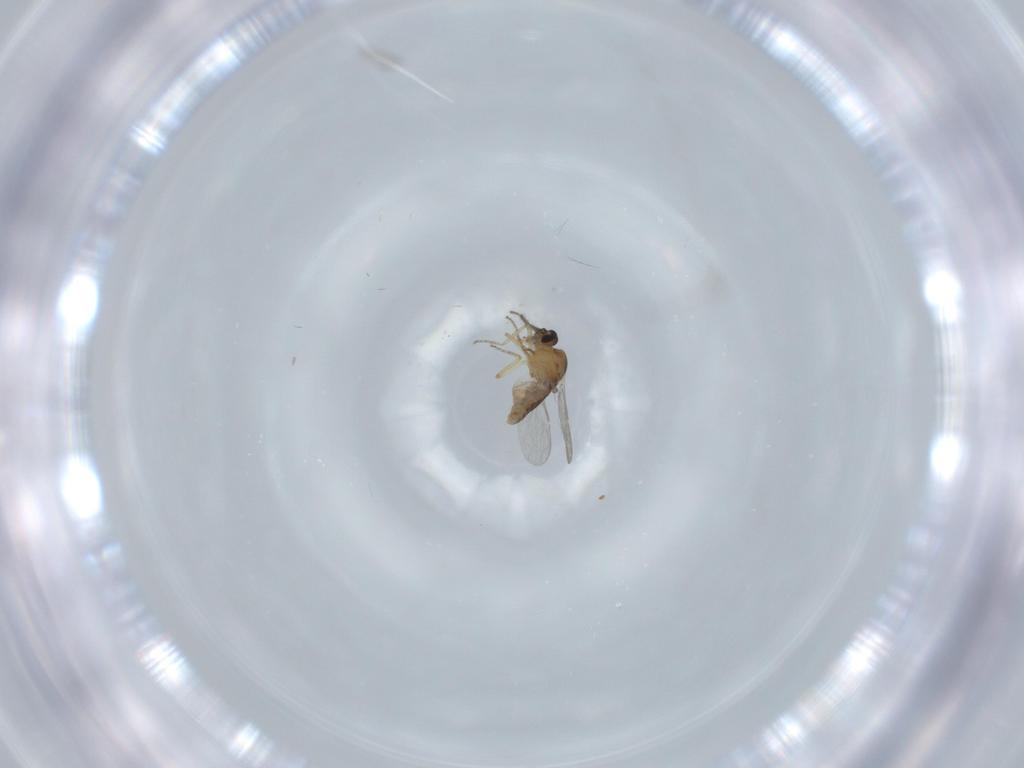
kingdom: Animalia
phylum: Arthropoda
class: Insecta
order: Diptera
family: Ceratopogonidae
